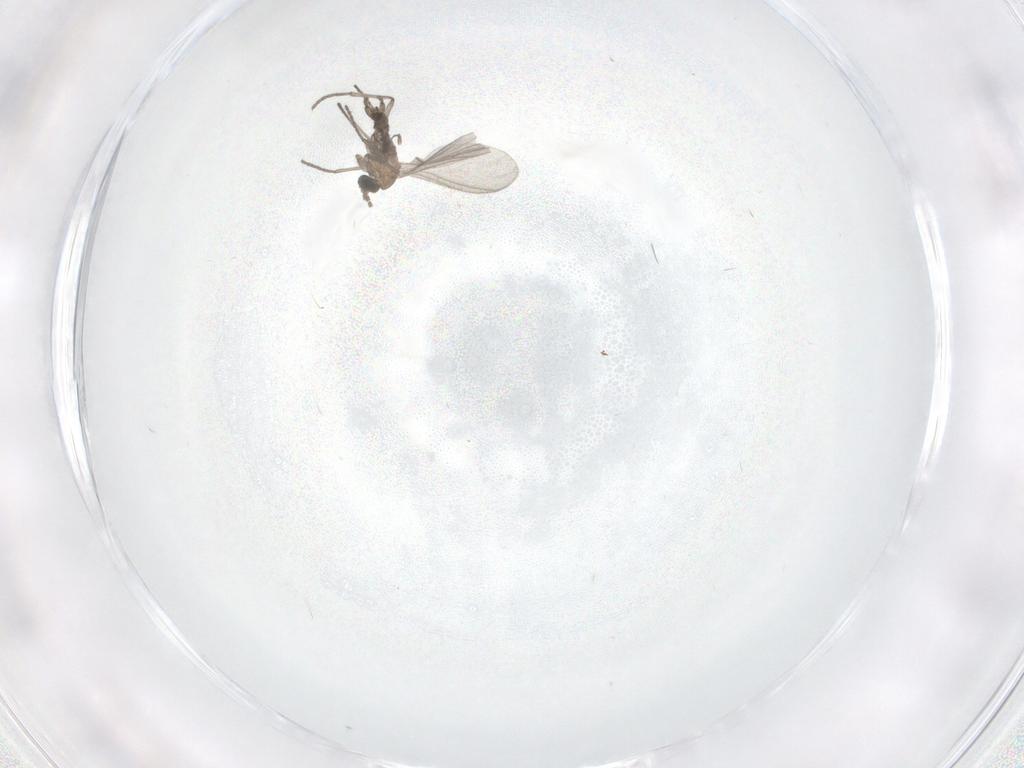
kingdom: Animalia
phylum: Arthropoda
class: Insecta
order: Diptera
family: Sciaridae
